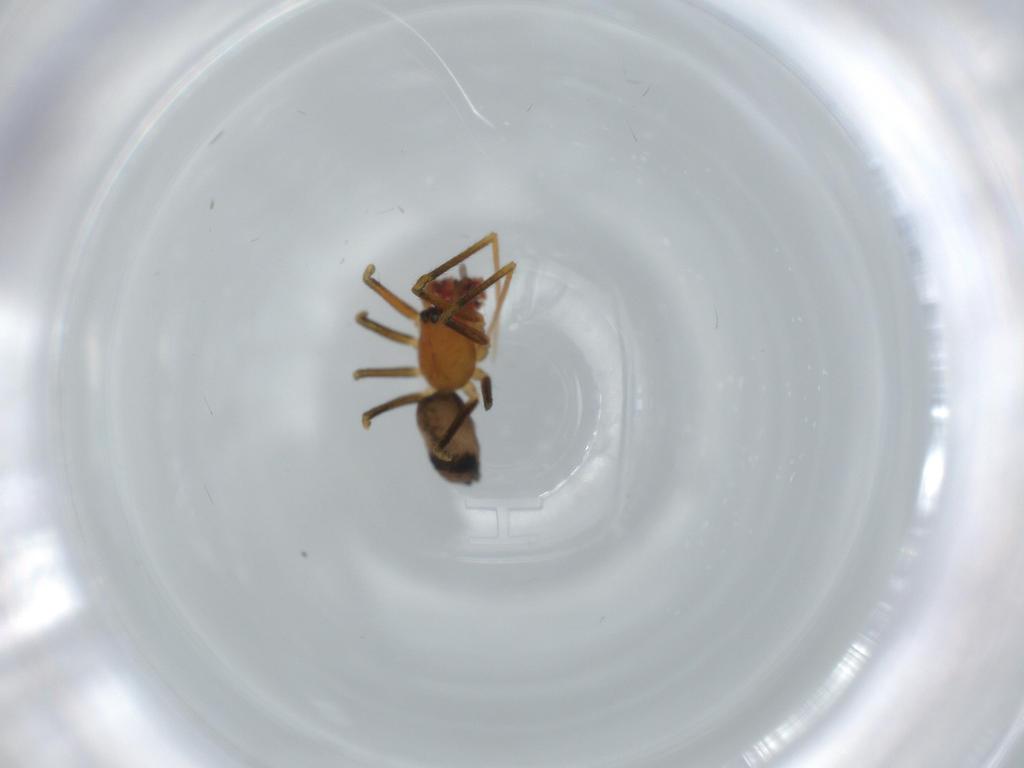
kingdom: Animalia
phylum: Arthropoda
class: Arachnida
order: Araneae
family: Linyphiidae
